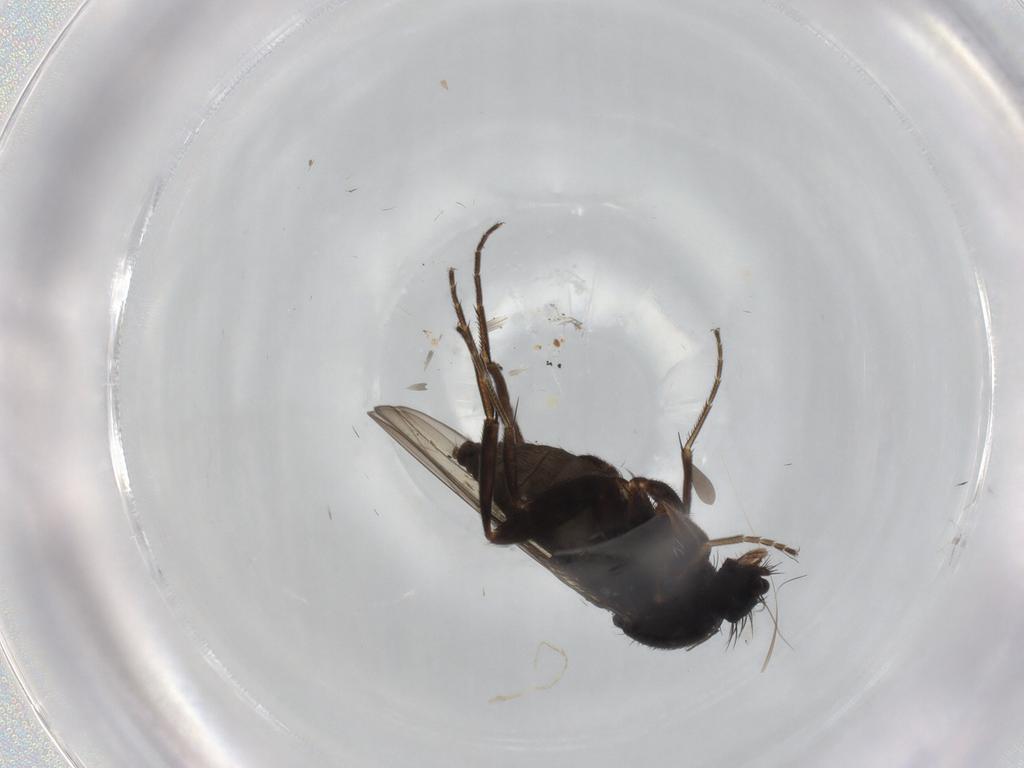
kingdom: Animalia
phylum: Arthropoda
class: Insecta
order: Diptera
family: Phoridae
